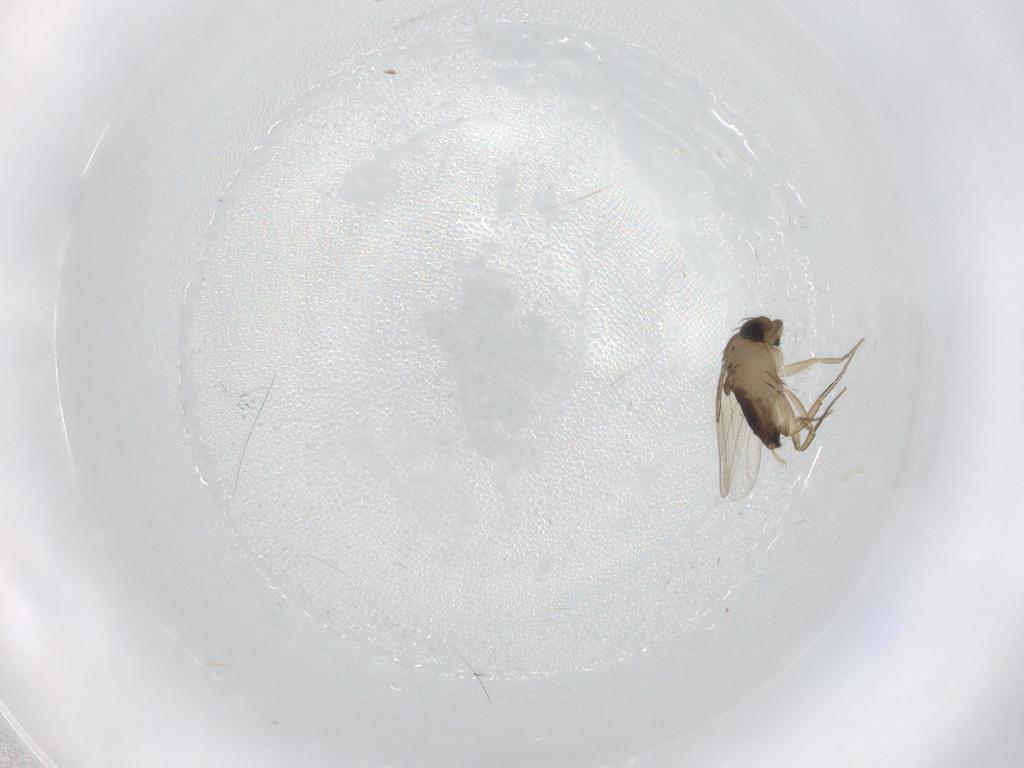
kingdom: Animalia
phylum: Arthropoda
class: Insecta
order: Diptera
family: Phoridae
